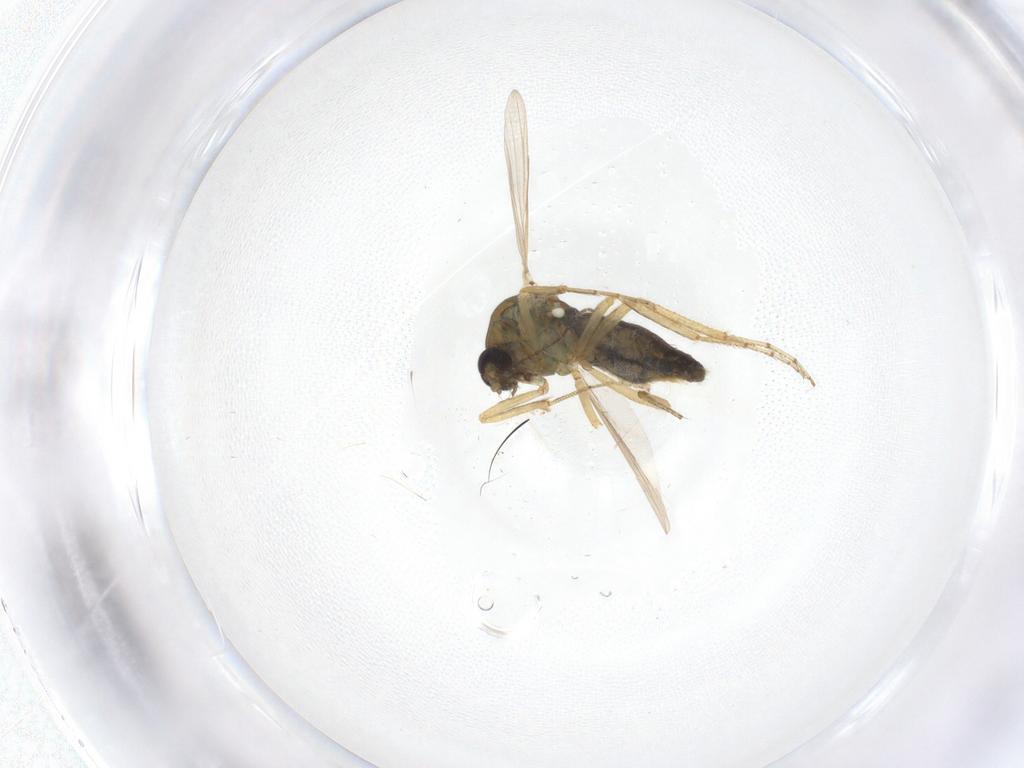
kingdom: Animalia
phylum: Arthropoda
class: Insecta
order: Diptera
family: Ceratopogonidae
